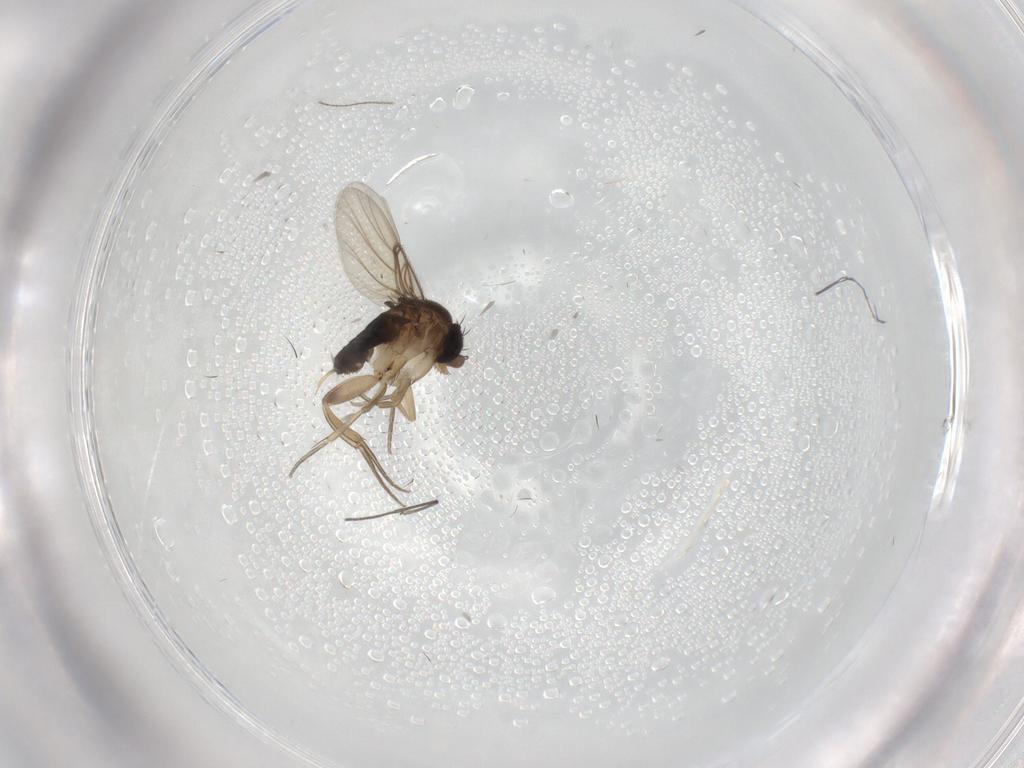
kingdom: Animalia
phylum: Arthropoda
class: Insecta
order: Diptera
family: Phoridae
